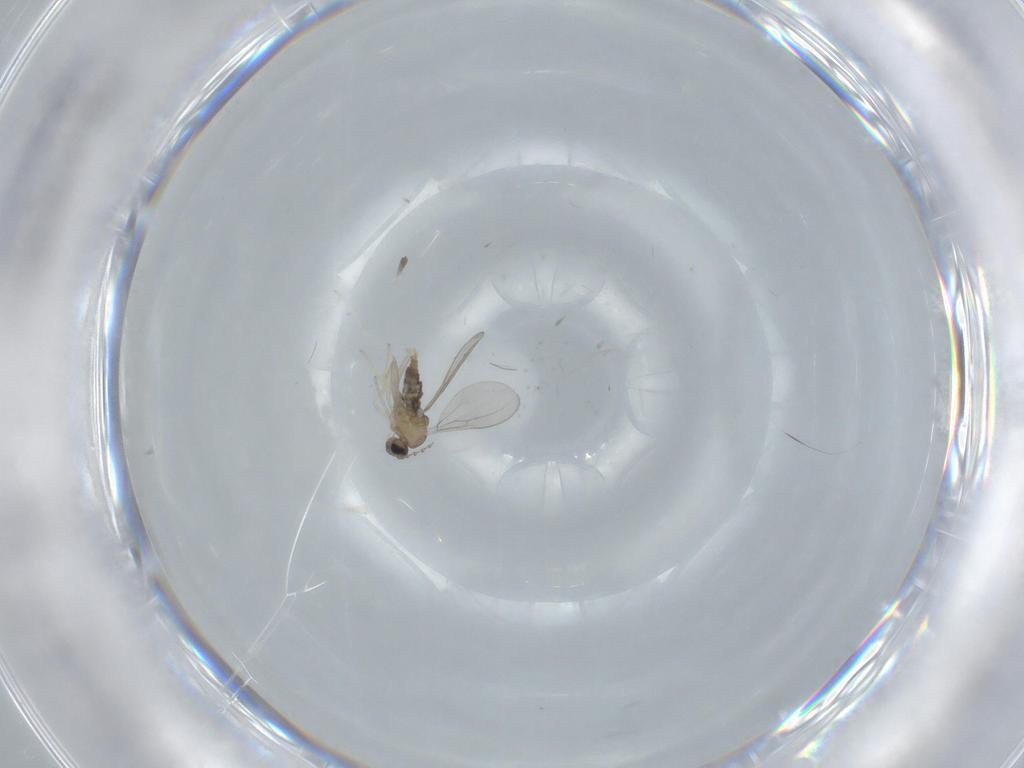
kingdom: Animalia
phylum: Arthropoda
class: Insecta
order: Diptera
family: Cecidomyiidae
